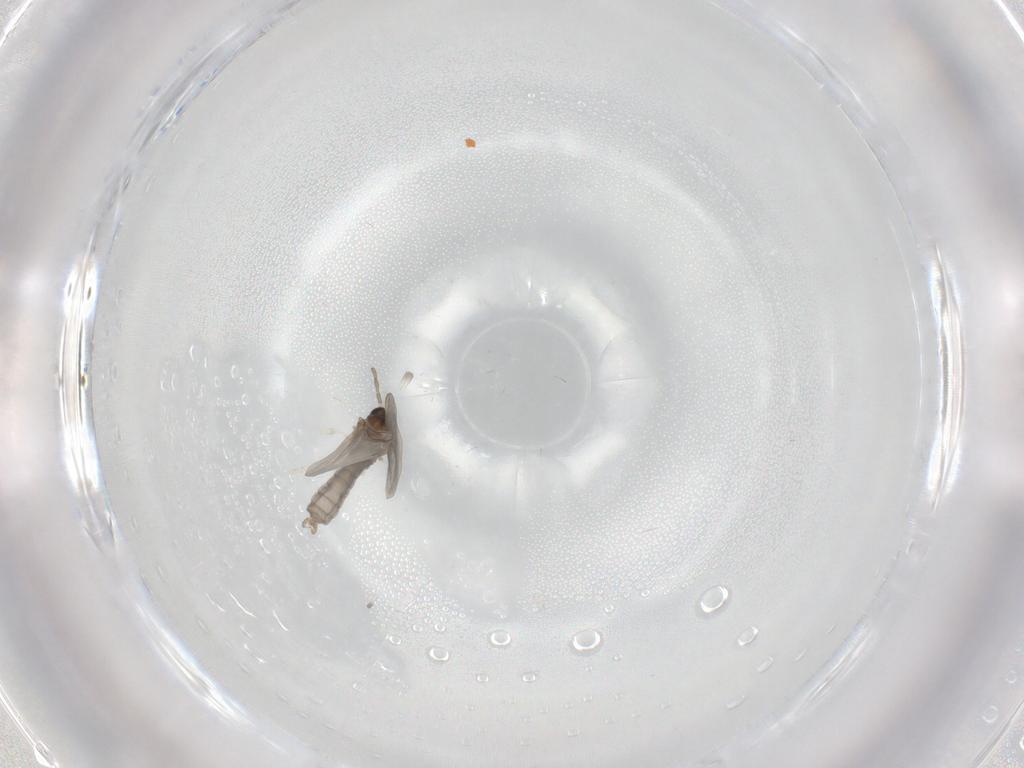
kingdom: Animalia
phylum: Arthropoda
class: Insecta
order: Diptera
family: Cecidomyiidae
